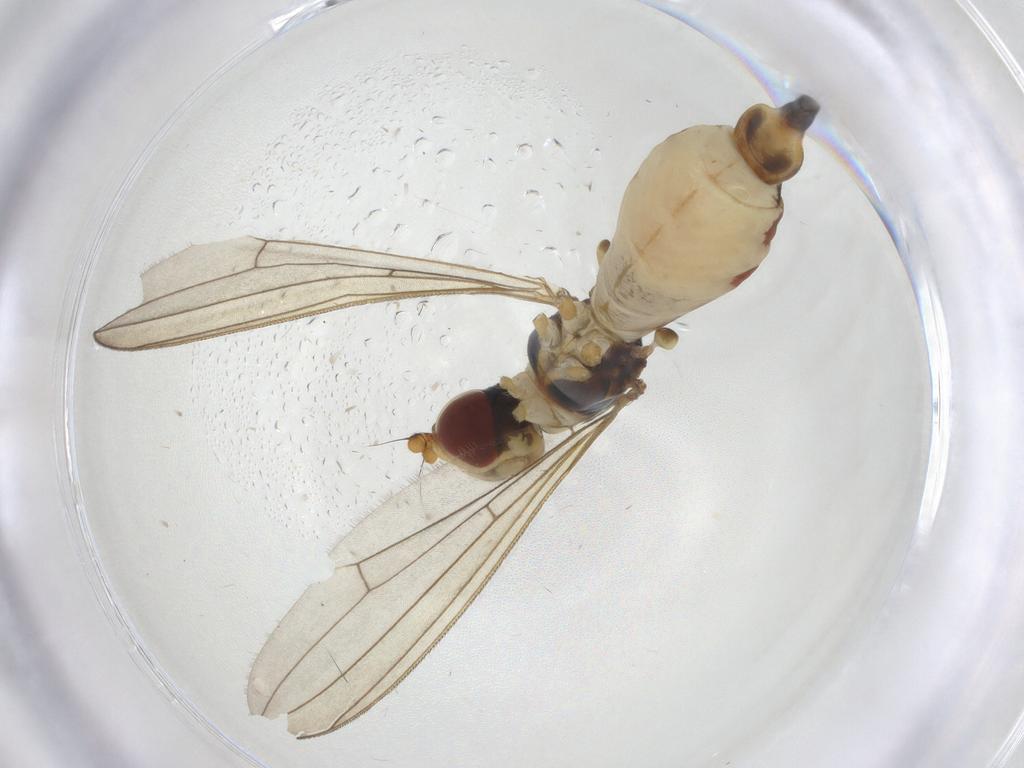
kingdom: Animalia
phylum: Arthropoda
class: Insecta
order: Diptera
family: Micropezidae
